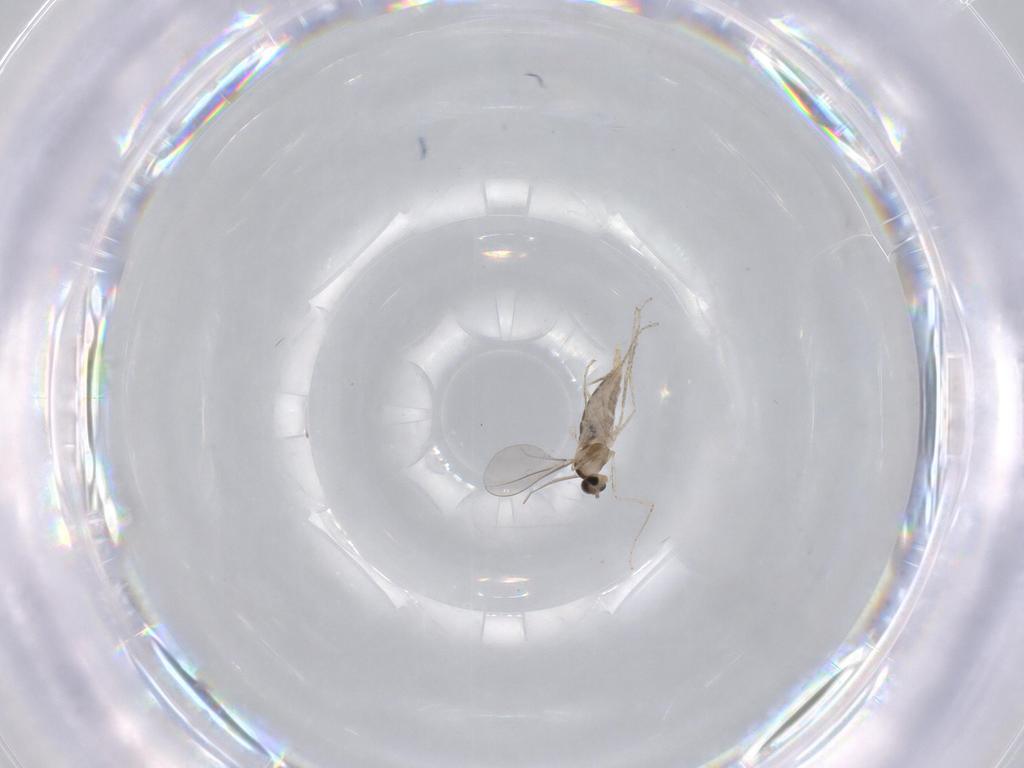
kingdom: Animalia
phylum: Arthropoda
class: Insecta
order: Diptera
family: Cecidomyiidae
